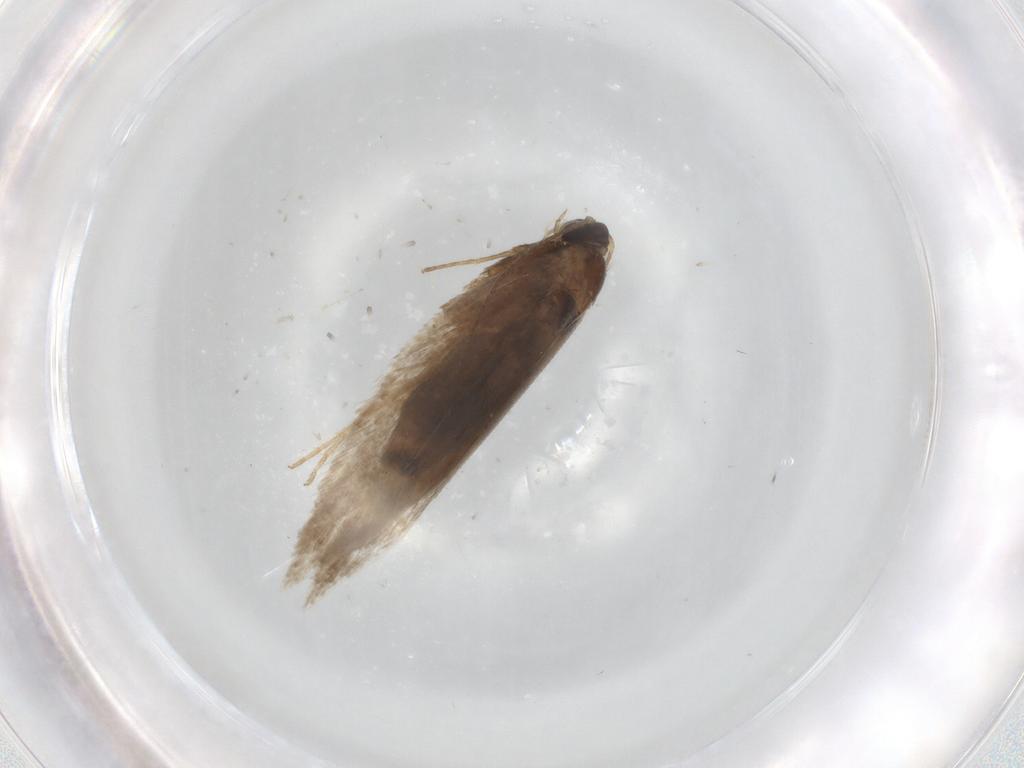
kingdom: Animalia
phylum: Arthropoda
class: Insecta
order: Lepidoptera
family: Nepticulidae
